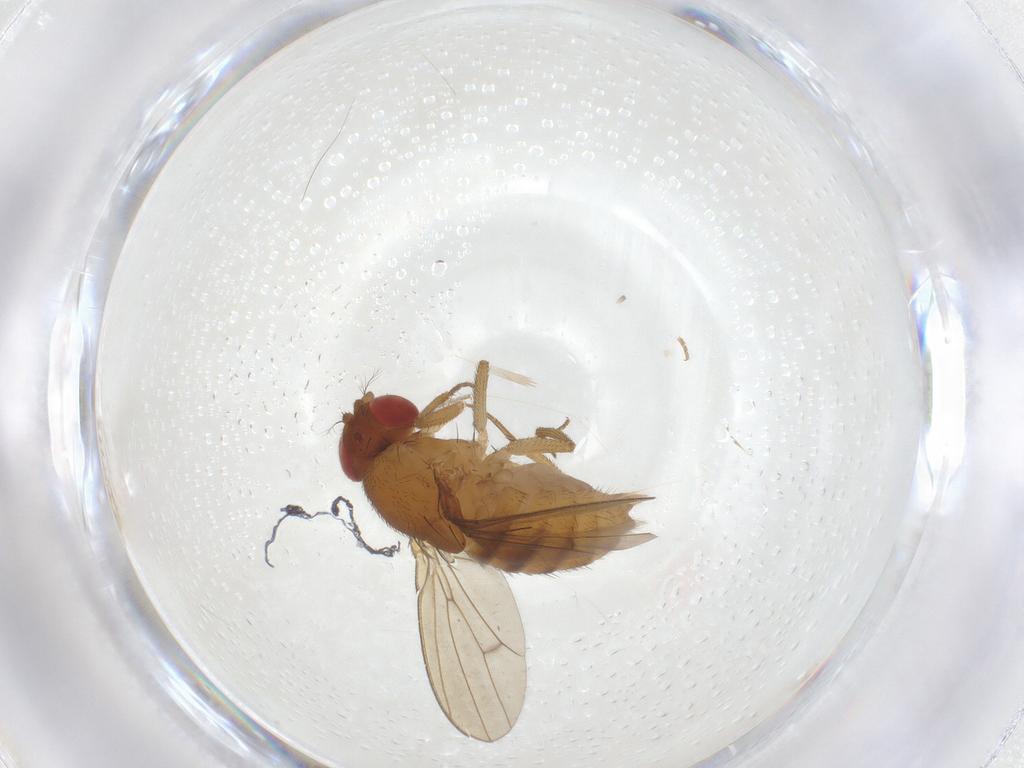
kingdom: Animalia
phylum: Arthropoda
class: Insecta
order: Diptera
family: Drosophilidae
